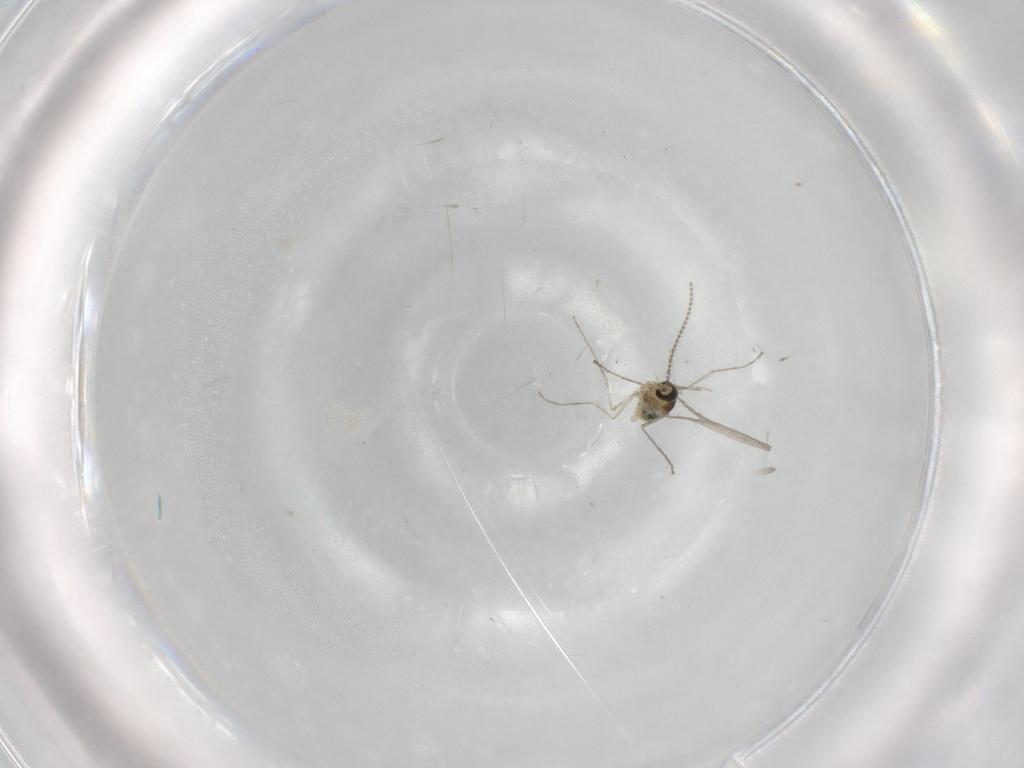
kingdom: Animalia
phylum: Arthropoda
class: Insecta
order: Diptera
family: Cecidomyiidae
